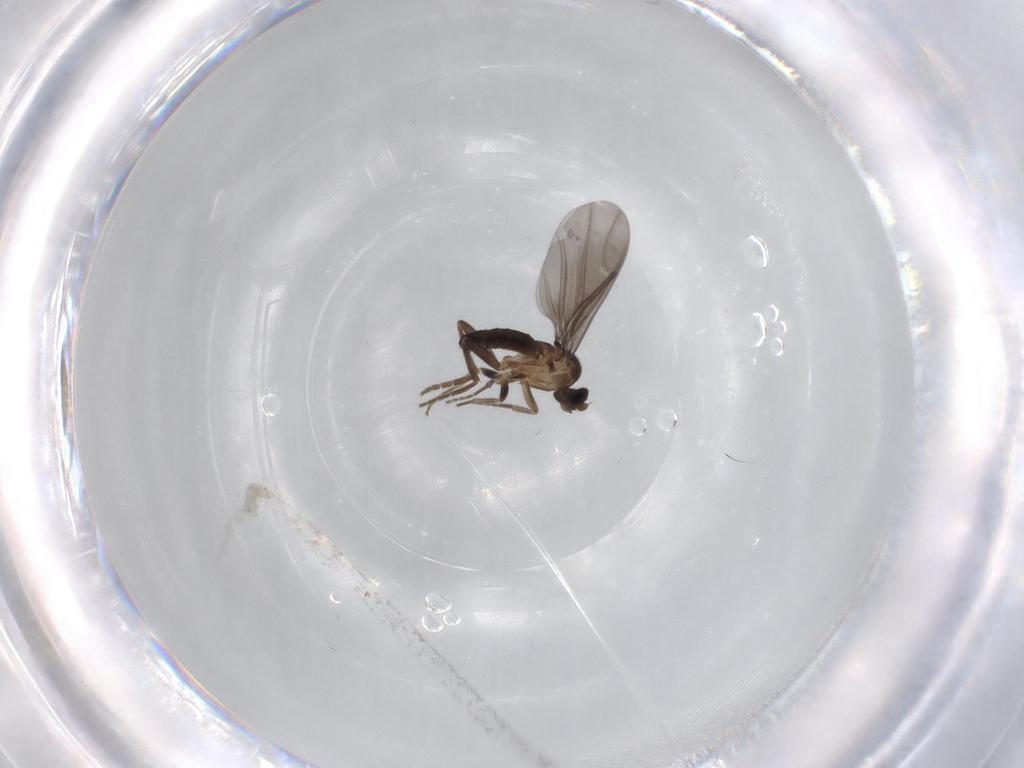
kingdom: Animalia
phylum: Arthropoda
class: Insecta
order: Diptera
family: Phoridae
